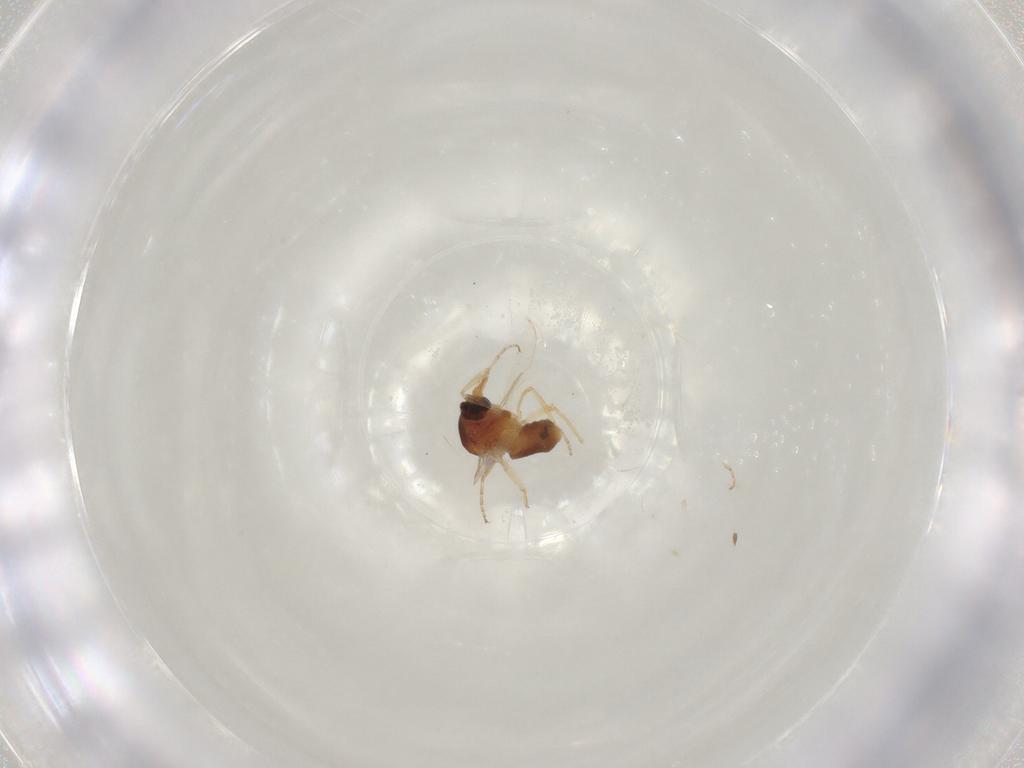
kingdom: Animalia
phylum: Arthropoda
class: Insecta
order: Diptera
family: Ceratopogonidae
